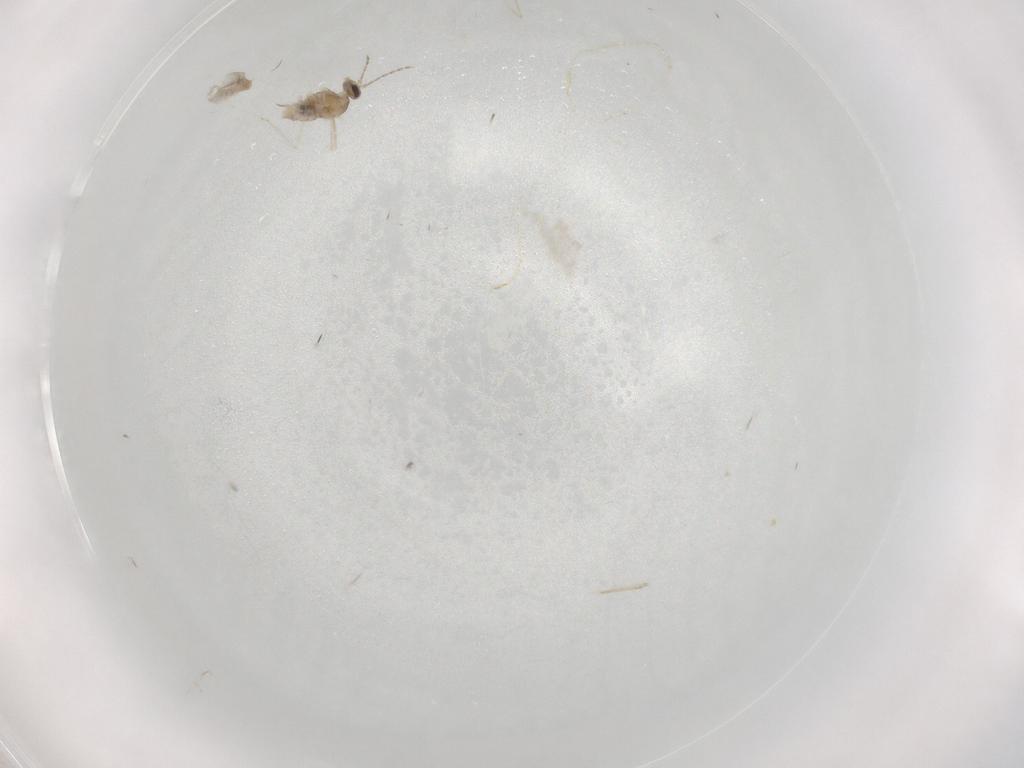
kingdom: Animalia
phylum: Arthropoda
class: Insecta
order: Diptera
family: Cecidomyiidae
